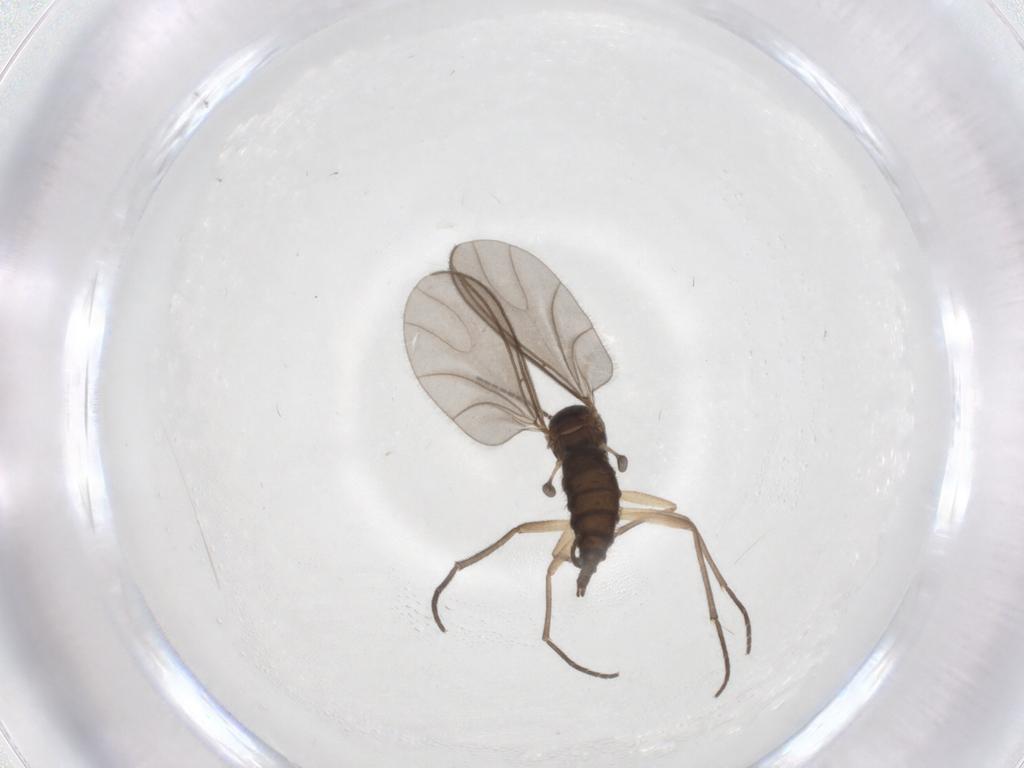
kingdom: Animalia
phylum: Arthropoda
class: Insecta
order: Diptera
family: Sciaridae
